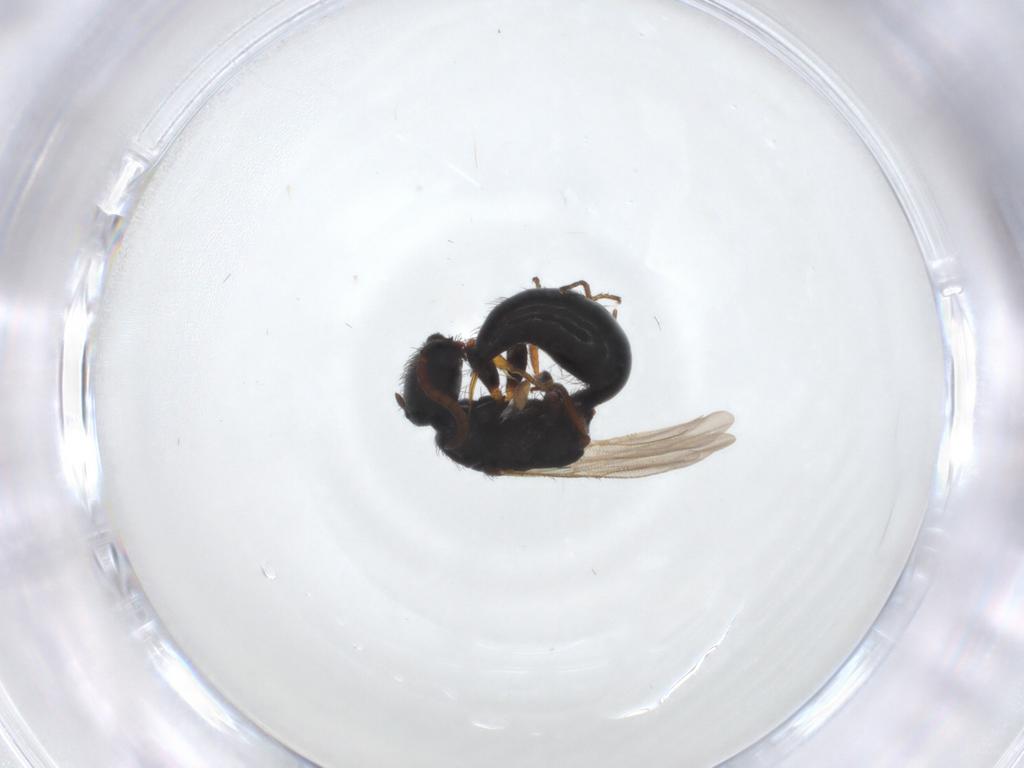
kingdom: Animalia
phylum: Arthropoda
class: Insecta
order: Hymenoptera
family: Bethylidae
